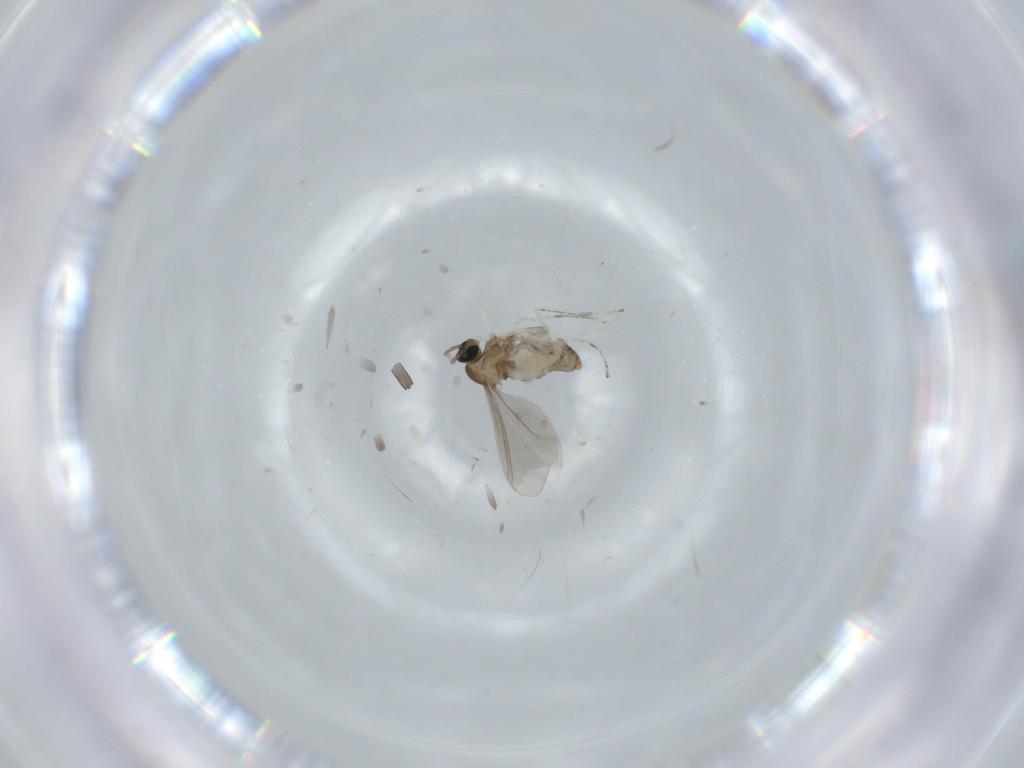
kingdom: Animalia
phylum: Arthropoda
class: Insecta
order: Diptera
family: Cecidomyiidae
